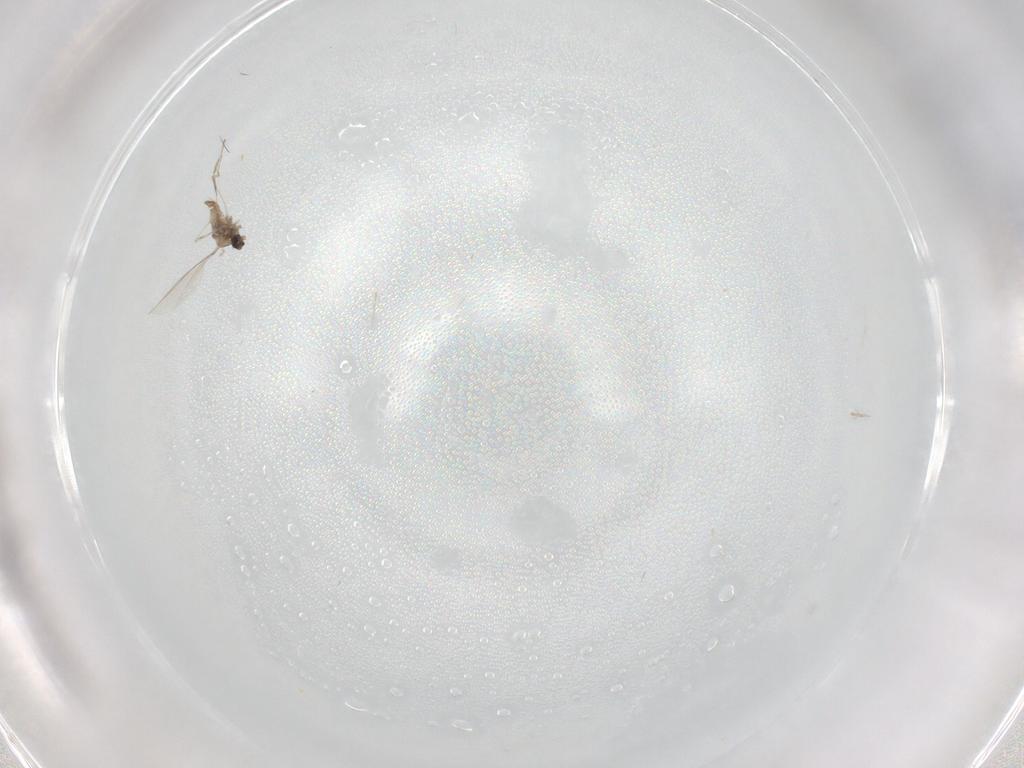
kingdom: Animalia
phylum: Arthropoda
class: Insecta
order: Diptera
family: Cecidomyiidae
